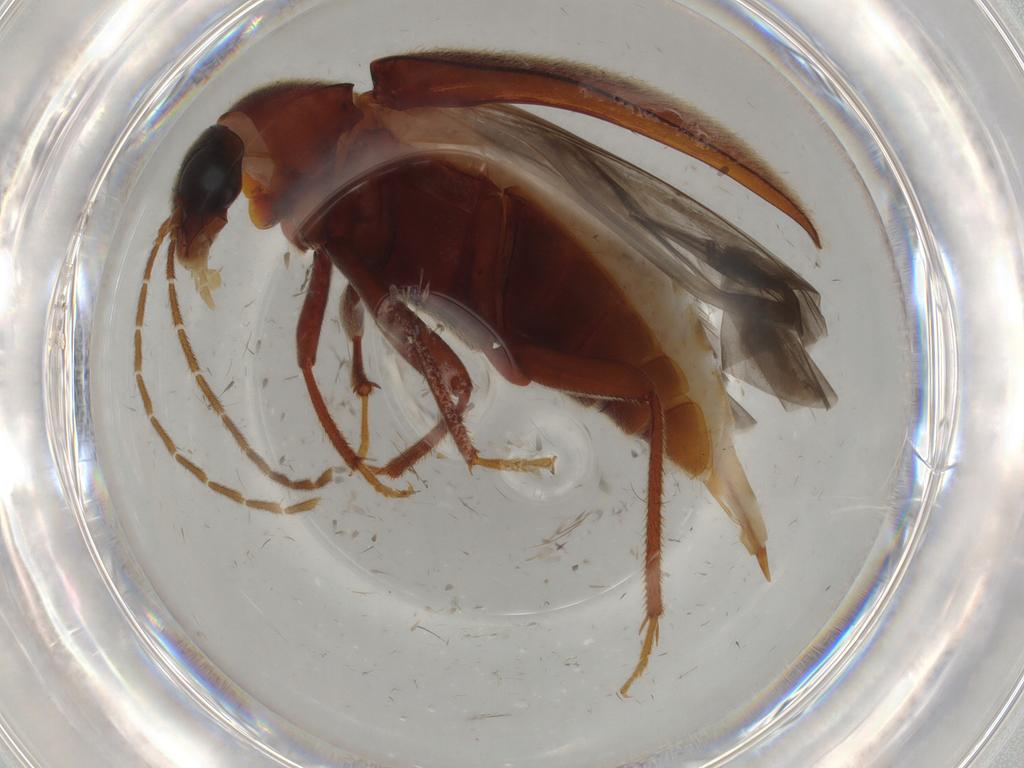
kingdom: Animalia
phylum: Arthropoda
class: Insecta
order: Coleoptera
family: Ptilodactylidae
